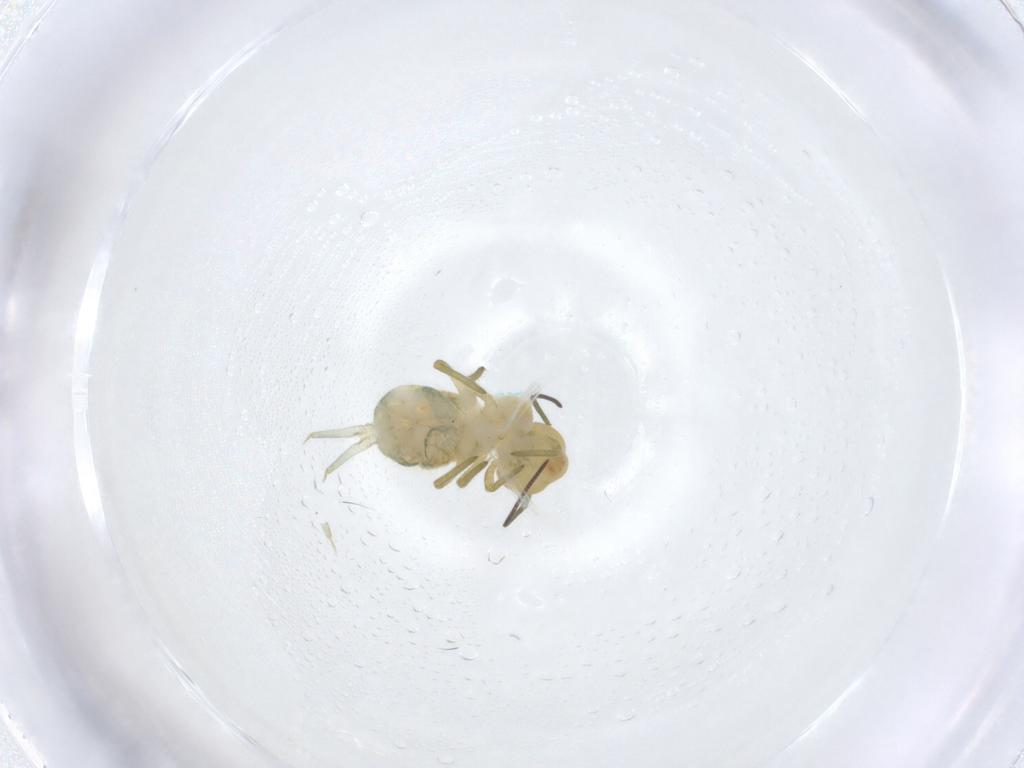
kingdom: Animalia
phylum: Arthropoda
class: Collembola
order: Symphypleona
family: Sminthuridae
